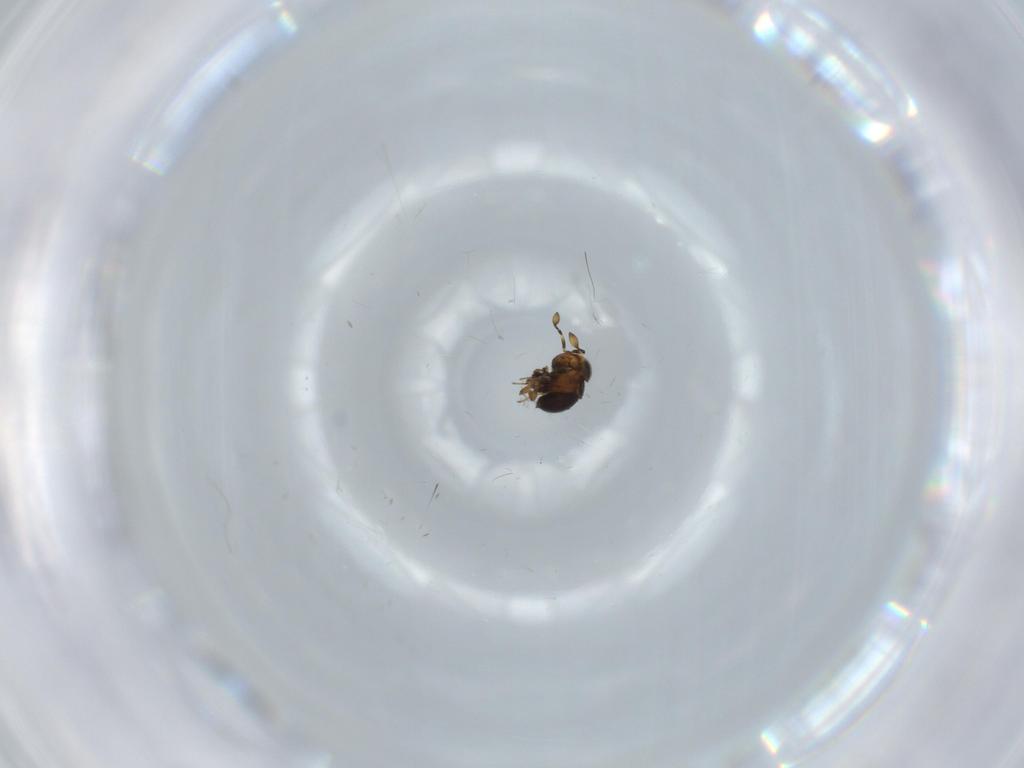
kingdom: Animalia
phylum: Arthropoda
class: Insecta
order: Hymenoptera
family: Scelionidae
